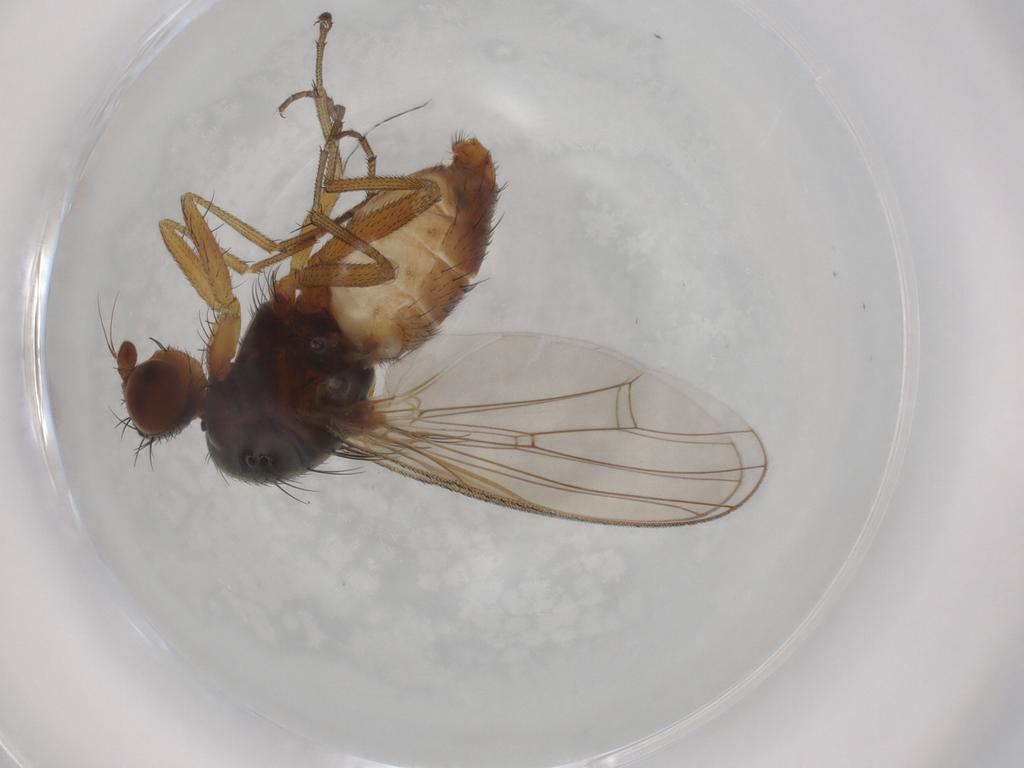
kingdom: Animalia
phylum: Arthropoda
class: Insecta
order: Diptera
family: Heleomyzidae
